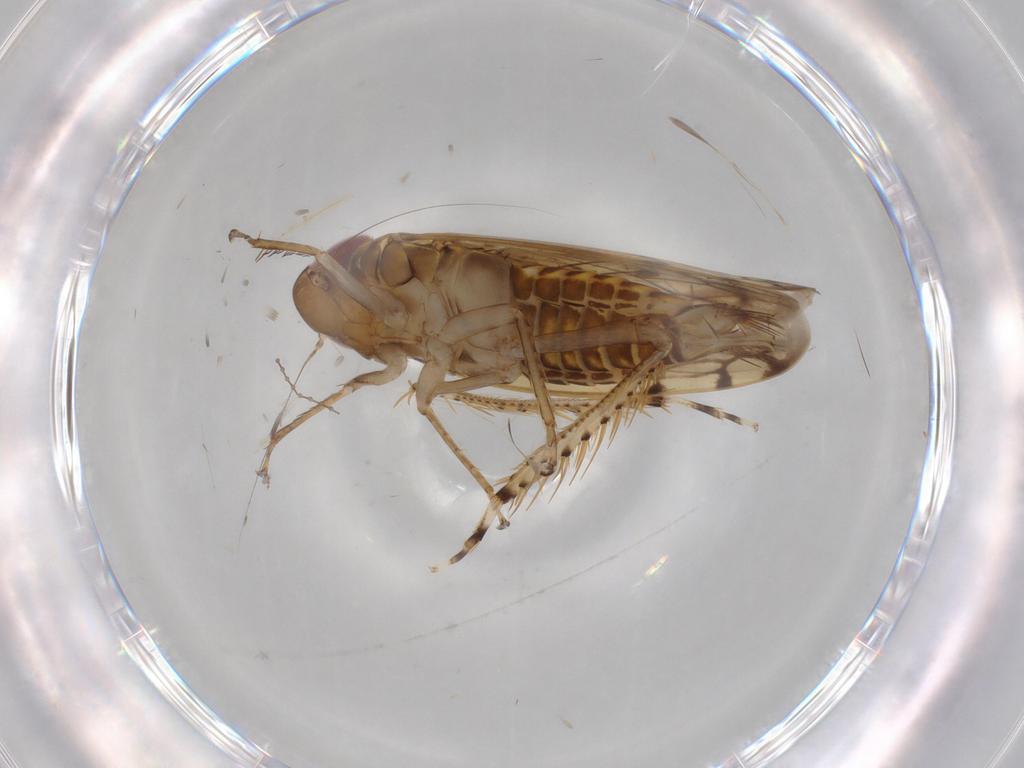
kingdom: Animalia
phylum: Arthropoda
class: Insecta
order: Hemiptera
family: Cicadellidae
